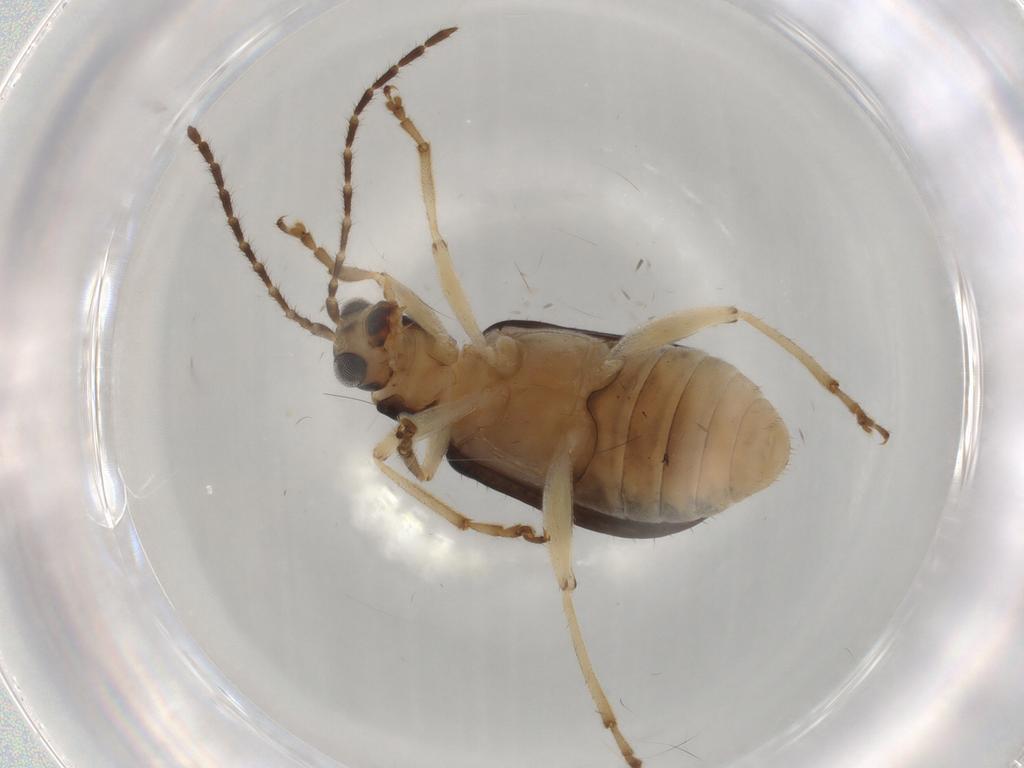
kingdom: Animalia
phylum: Arthropoda
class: Insecta
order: Coleoptera
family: Chrysomelidae
